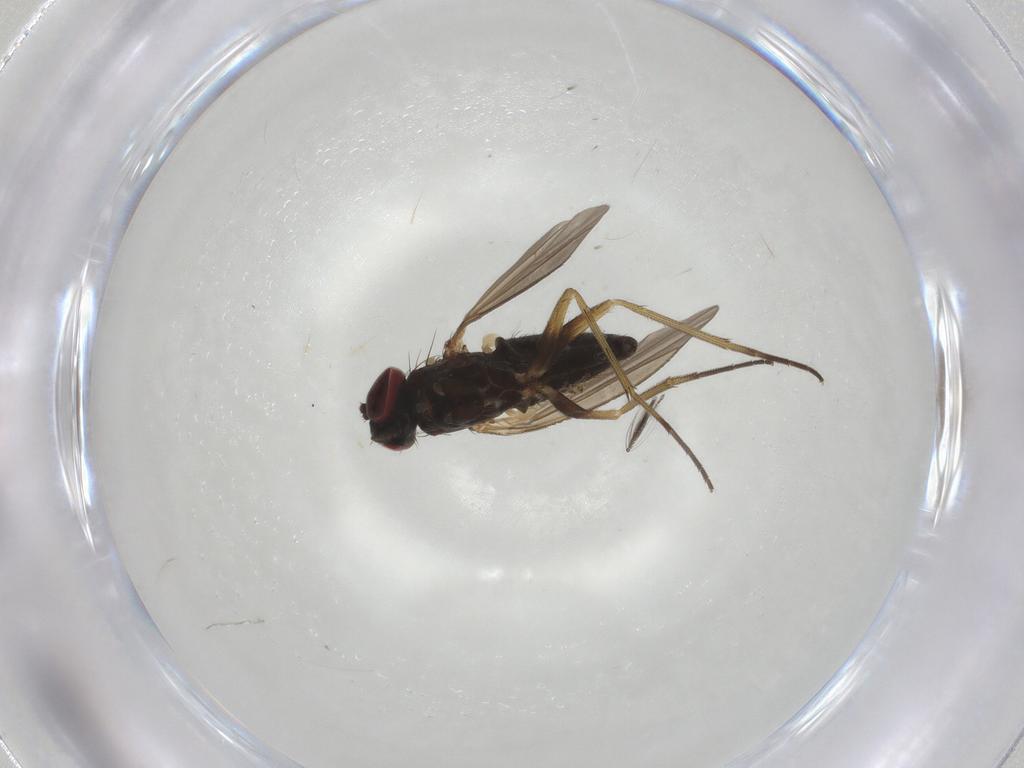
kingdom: Animalia
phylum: Arthropoda
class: Insecta
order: Diptera
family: Dolichopodidae
